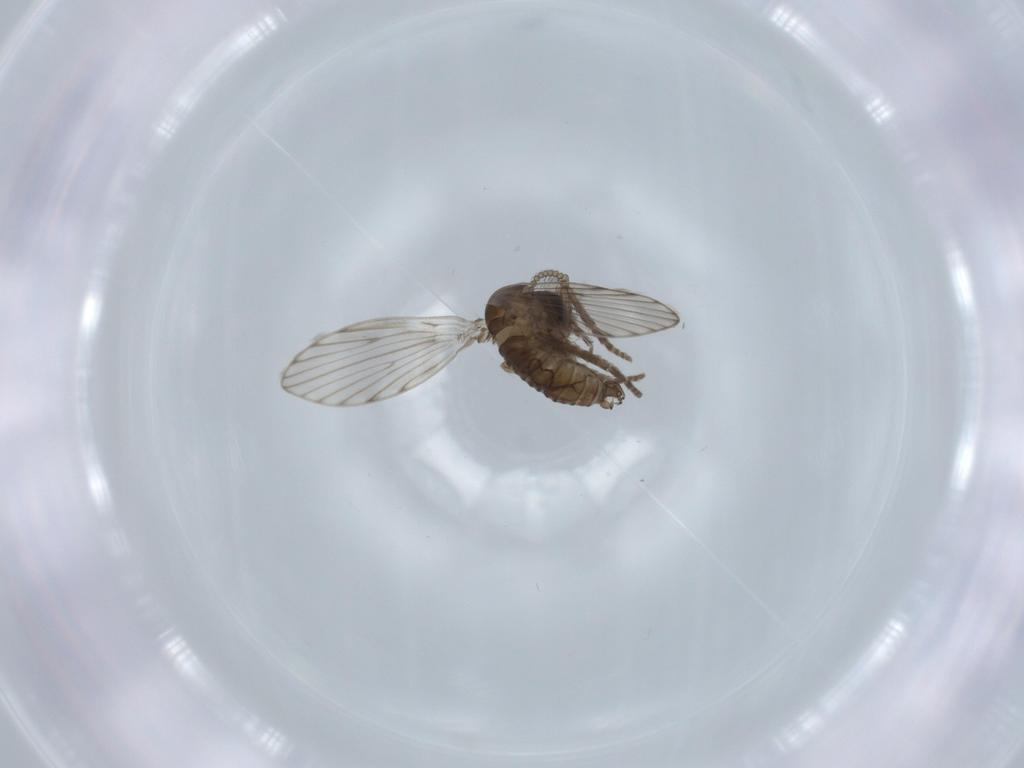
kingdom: Animalia
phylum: Arthropoda
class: Insecta
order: Diptera
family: Psychodidae
